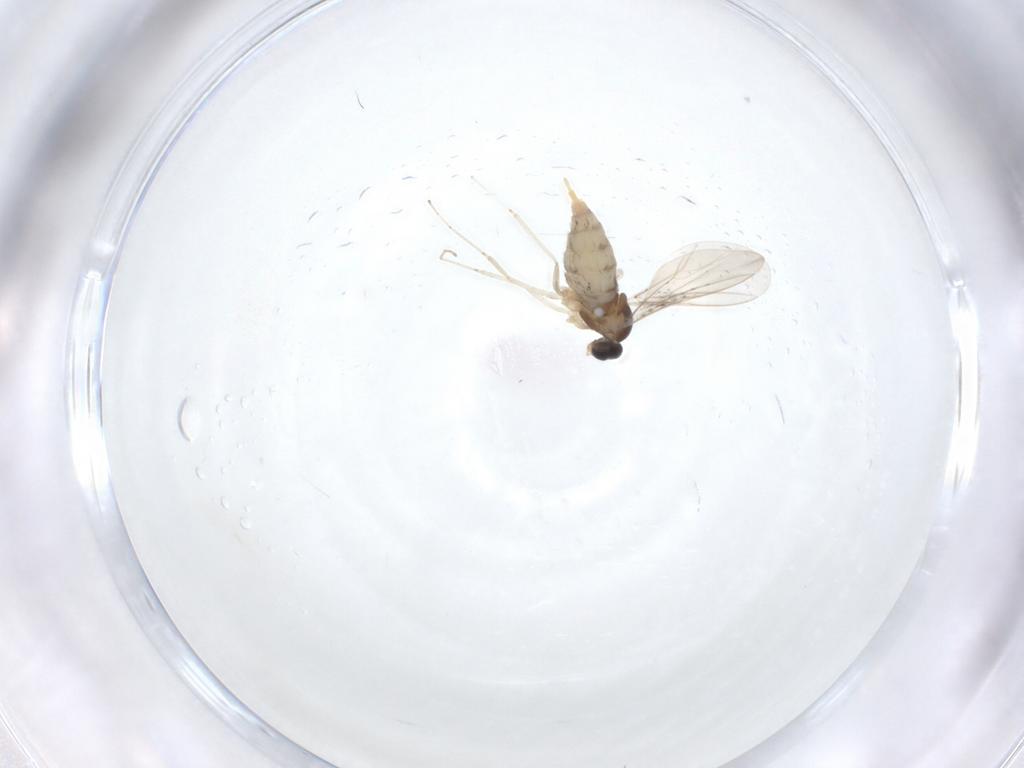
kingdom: Animalia
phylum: Arthropoda
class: Insecta
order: Diptera
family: Cecidomyiidae
